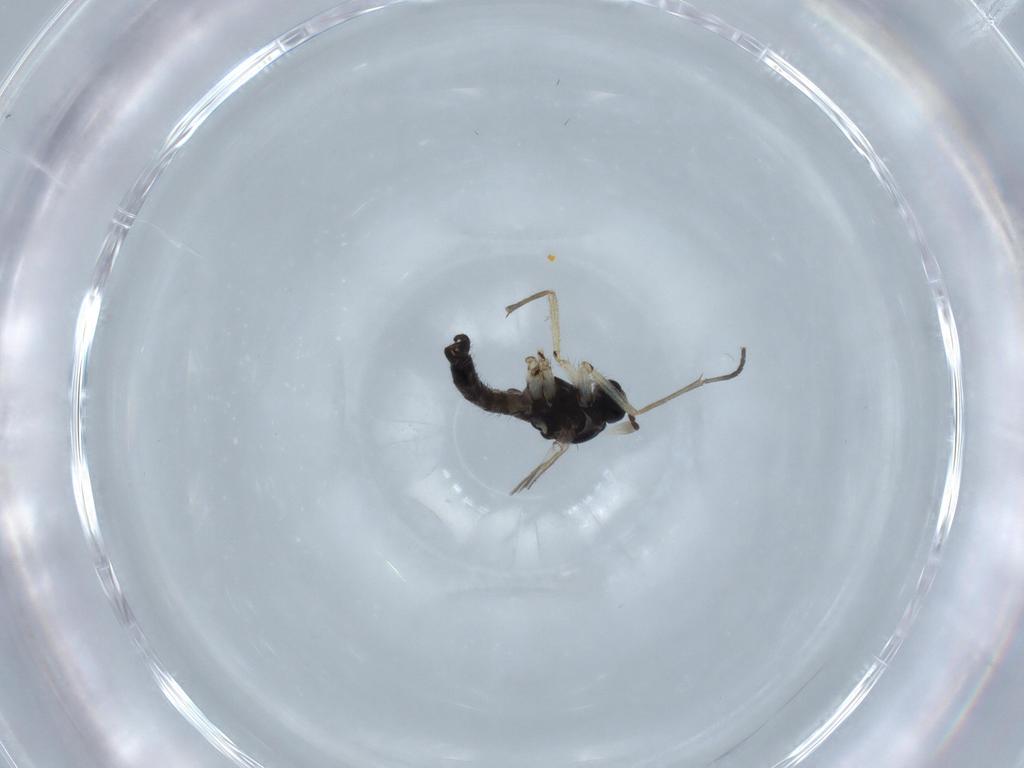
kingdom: Animalia
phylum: Arthropoda
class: Insecta
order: Diptera
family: Sciaridae
